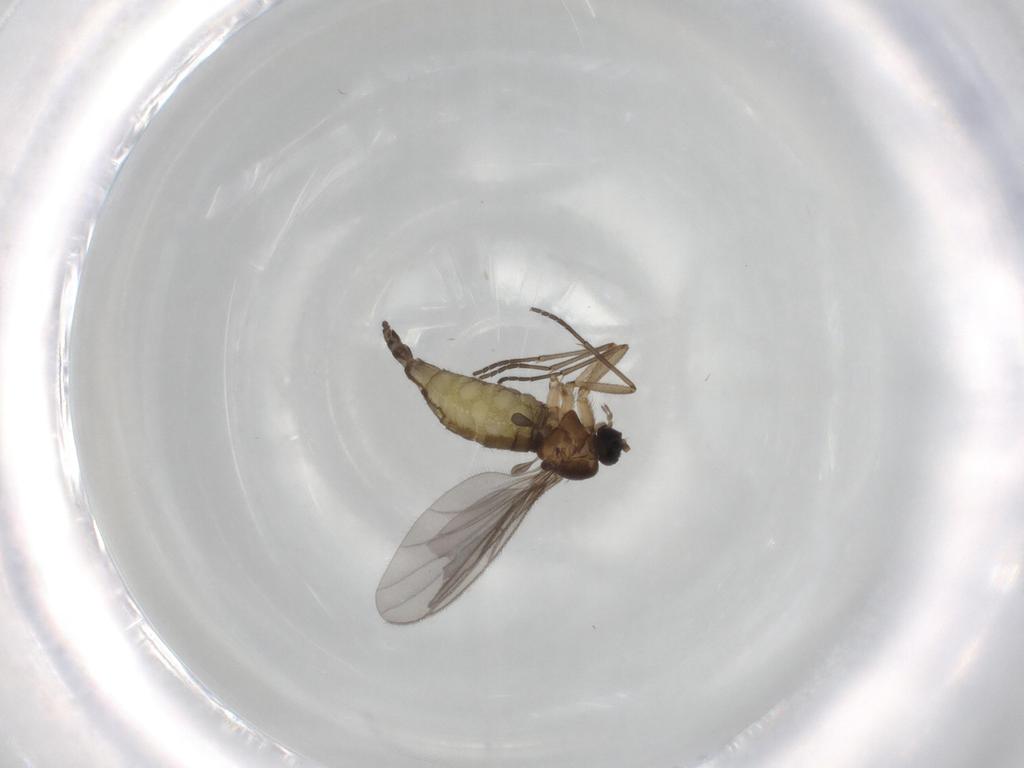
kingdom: Animalia
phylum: Arthropoda
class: Insecta
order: Diptera
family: Sciaridae
